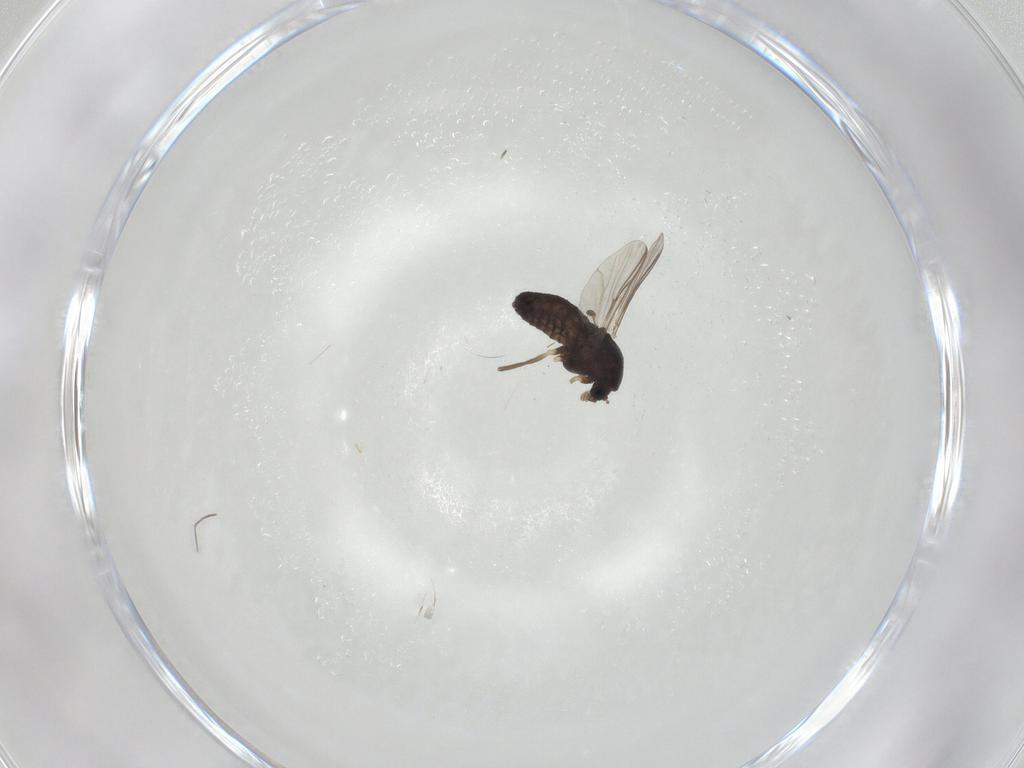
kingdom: Animalia
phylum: Arthropoda
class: Insecta
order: Diptera
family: Chironomidae
